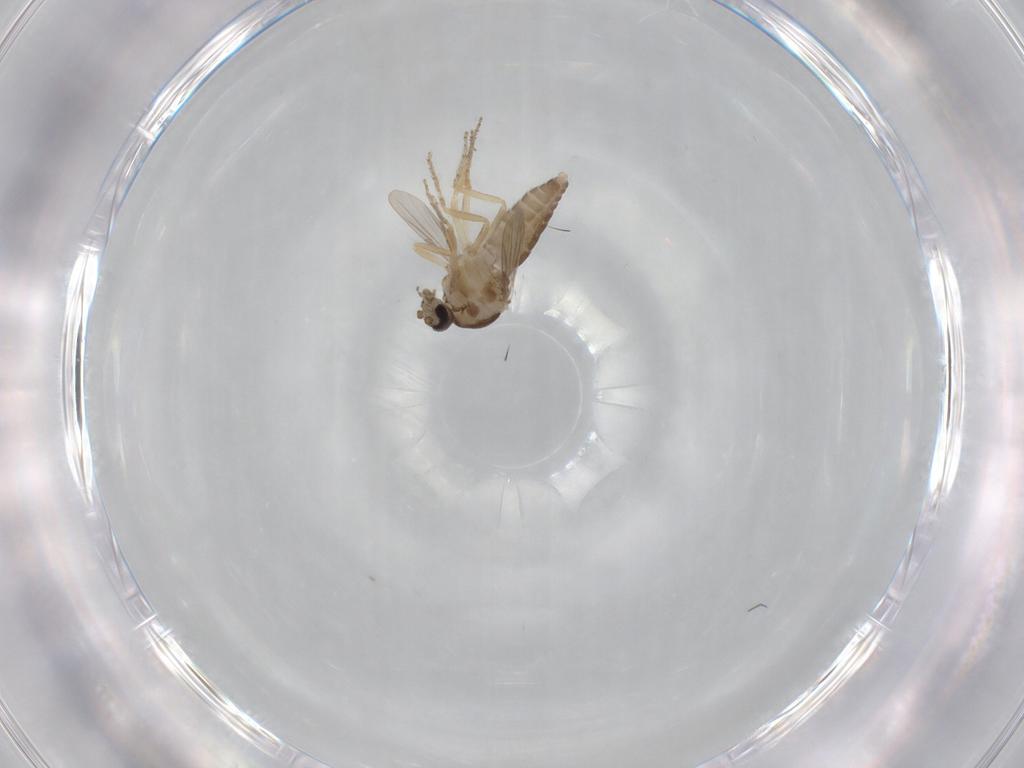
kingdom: Animalia
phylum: Arthropoda
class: Insecta
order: Diptera
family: Ceratopogonidae
